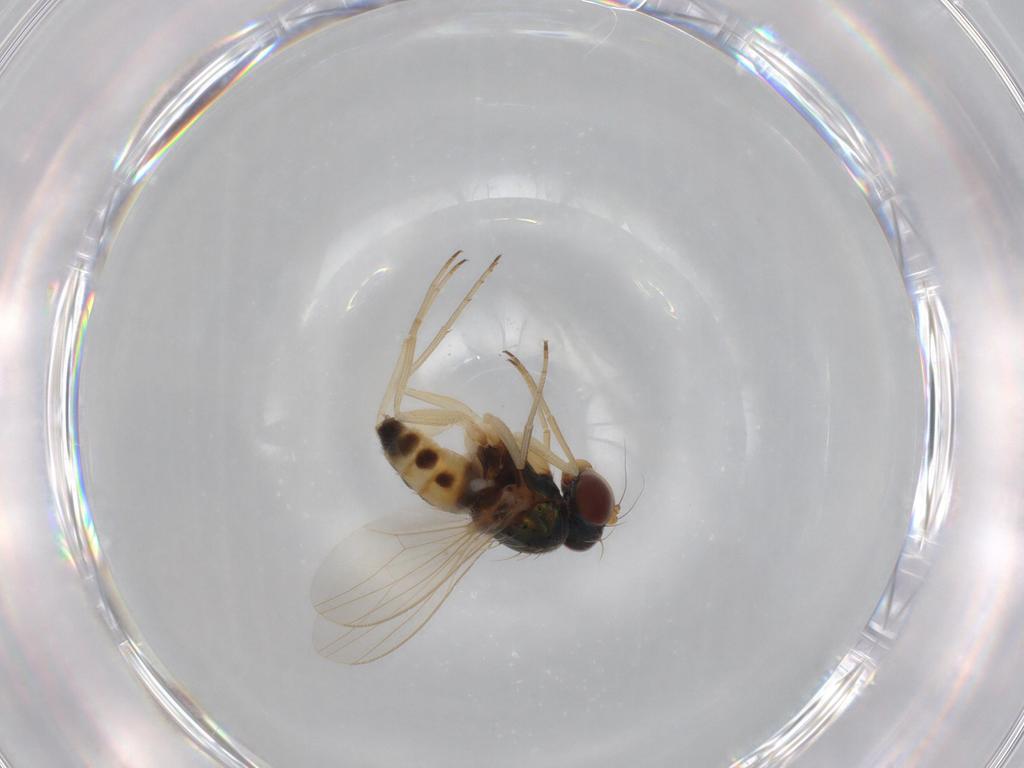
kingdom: Animalia
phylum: Arthropoda
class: Insecta
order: Diptera
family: Dolichopodidae
